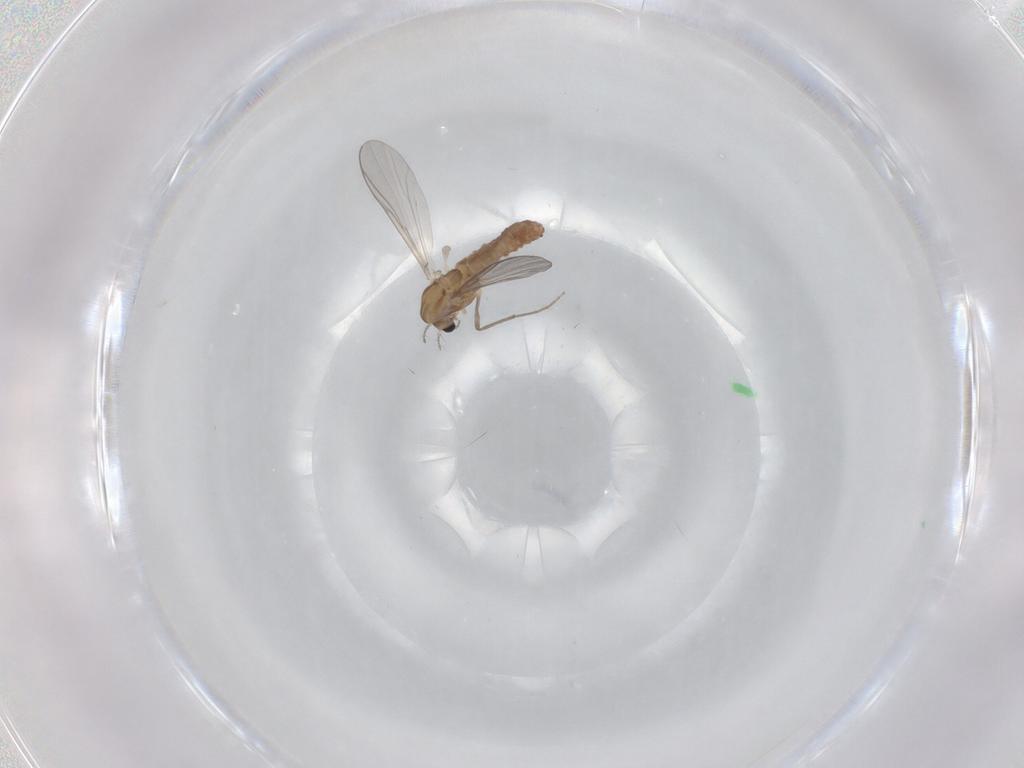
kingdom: Animalia
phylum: Arthropoda
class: Insecta
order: Diptera
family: Chironomidae
